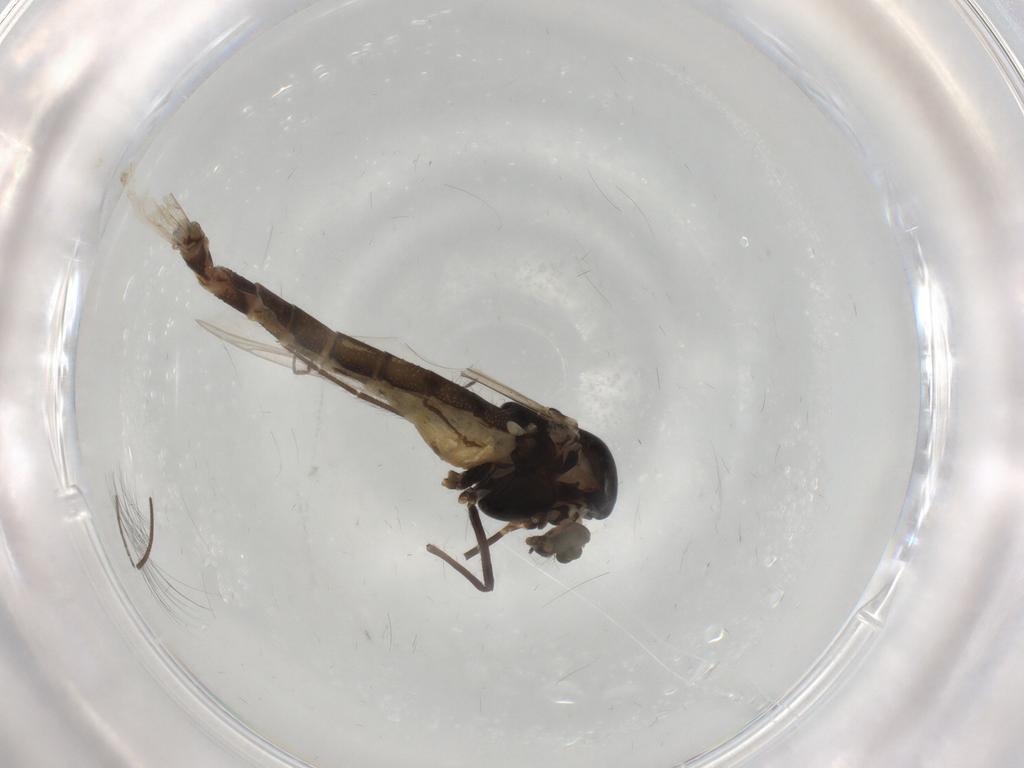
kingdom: Animalia
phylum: Arthropoda
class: Insecta
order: Diptera
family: Chironomidae
